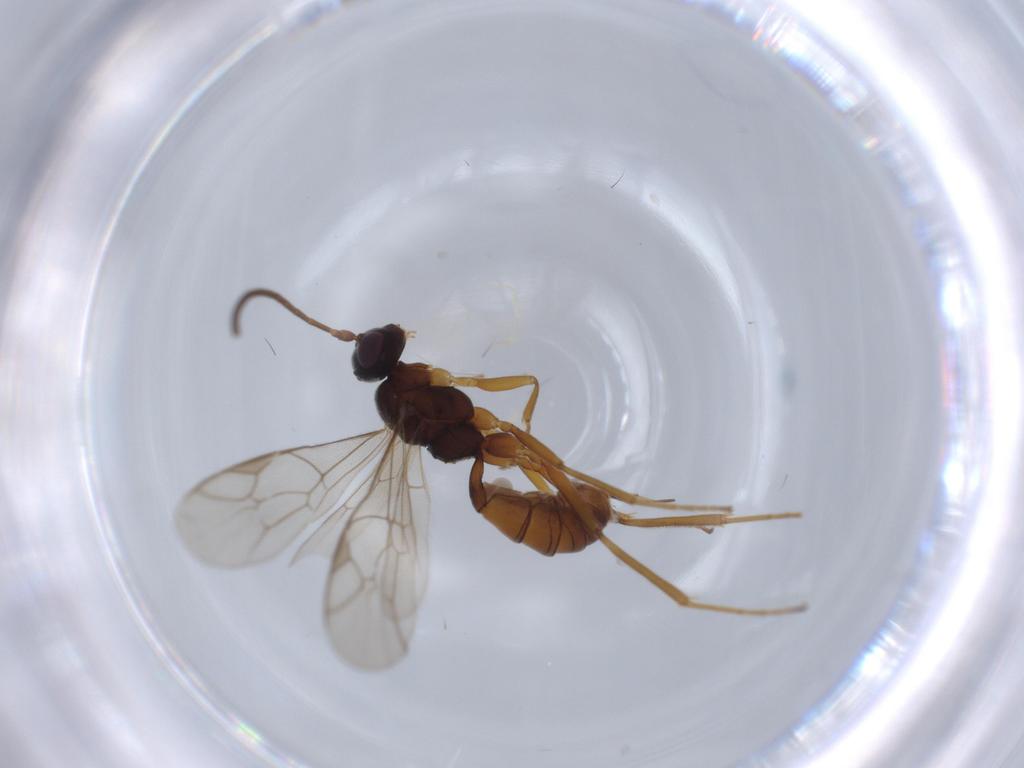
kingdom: Animalia
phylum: Arthropoda
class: Insecta
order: Hymenoptera
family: Ichneumonidae
